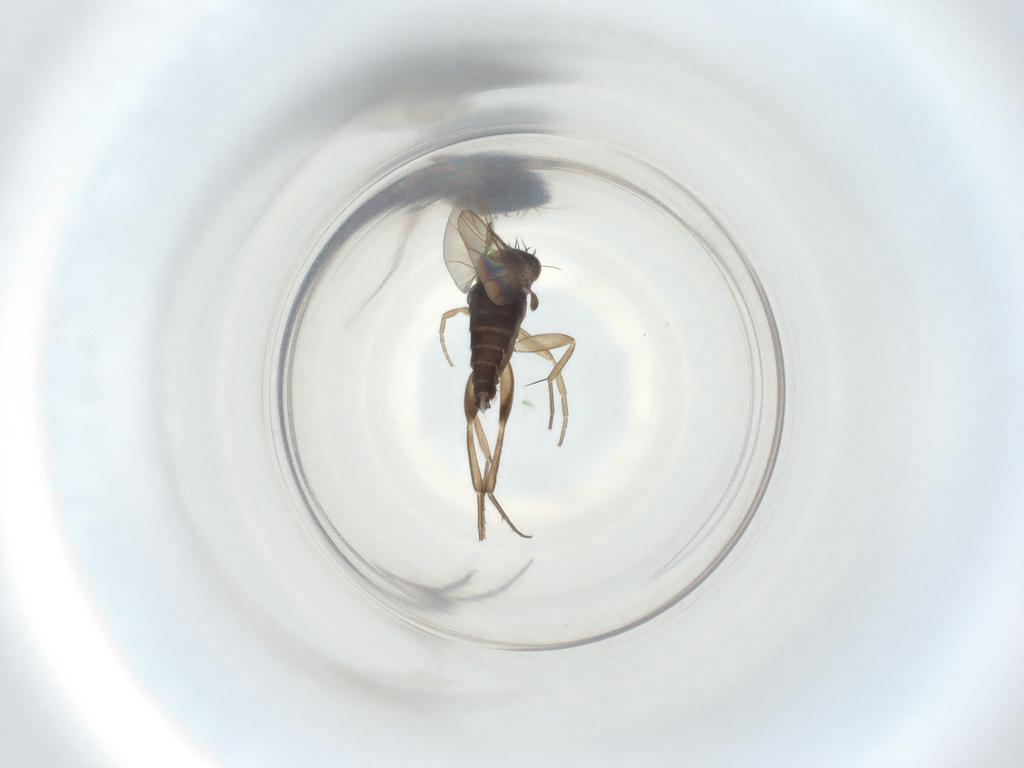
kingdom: Animalia
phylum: Arthropoda
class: Insecta
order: Diptera
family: Phoridae
